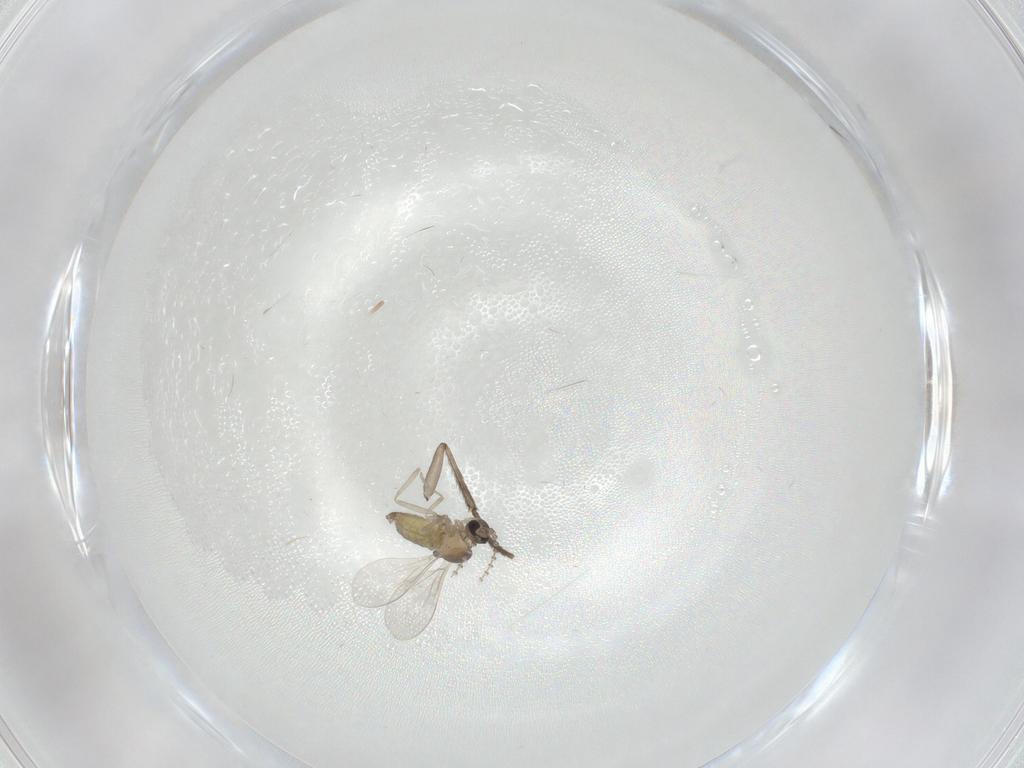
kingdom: Animalia
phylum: Arthropoda
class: Insecta
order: Diptera
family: Cecidomyiidae
